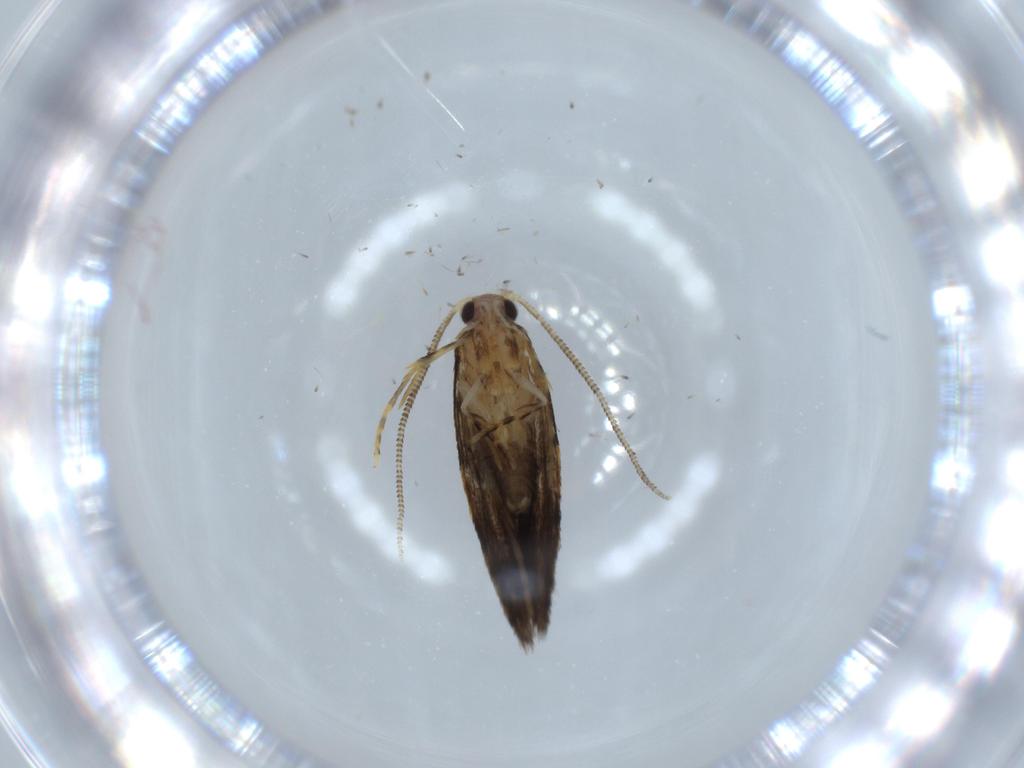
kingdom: Animalia
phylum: Arthropoda
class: Insecta
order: Lepidoptera
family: Tineidae
